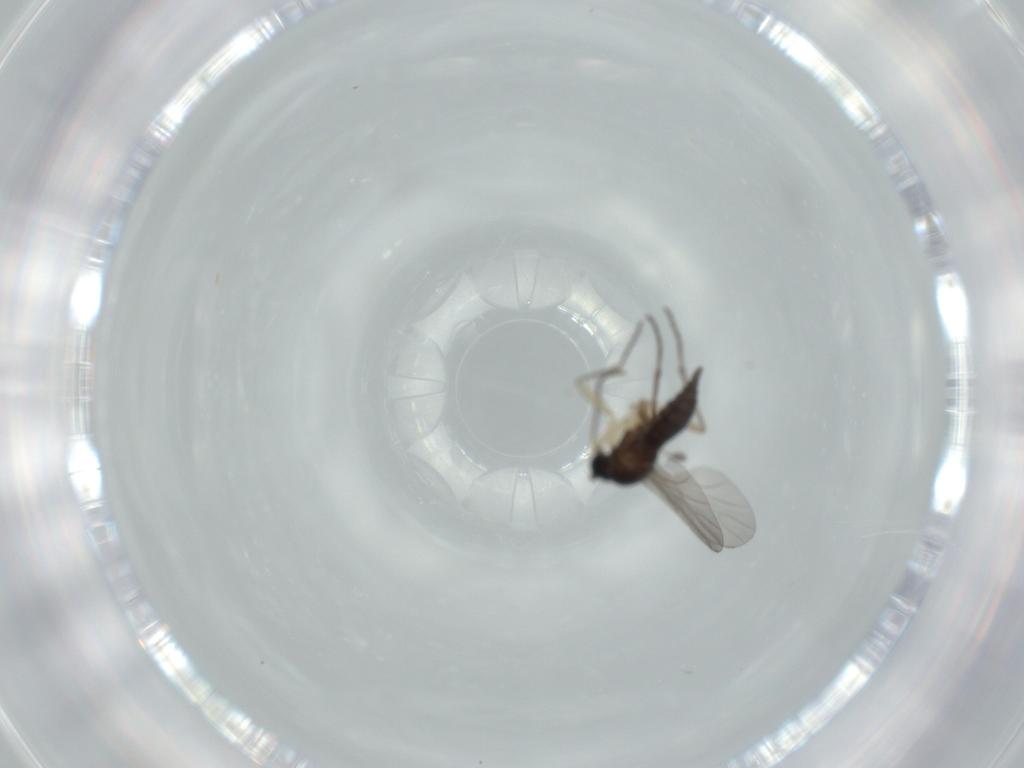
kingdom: Animalia
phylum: Arthropoda
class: Insecta
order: Diptera
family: Sciaridae
